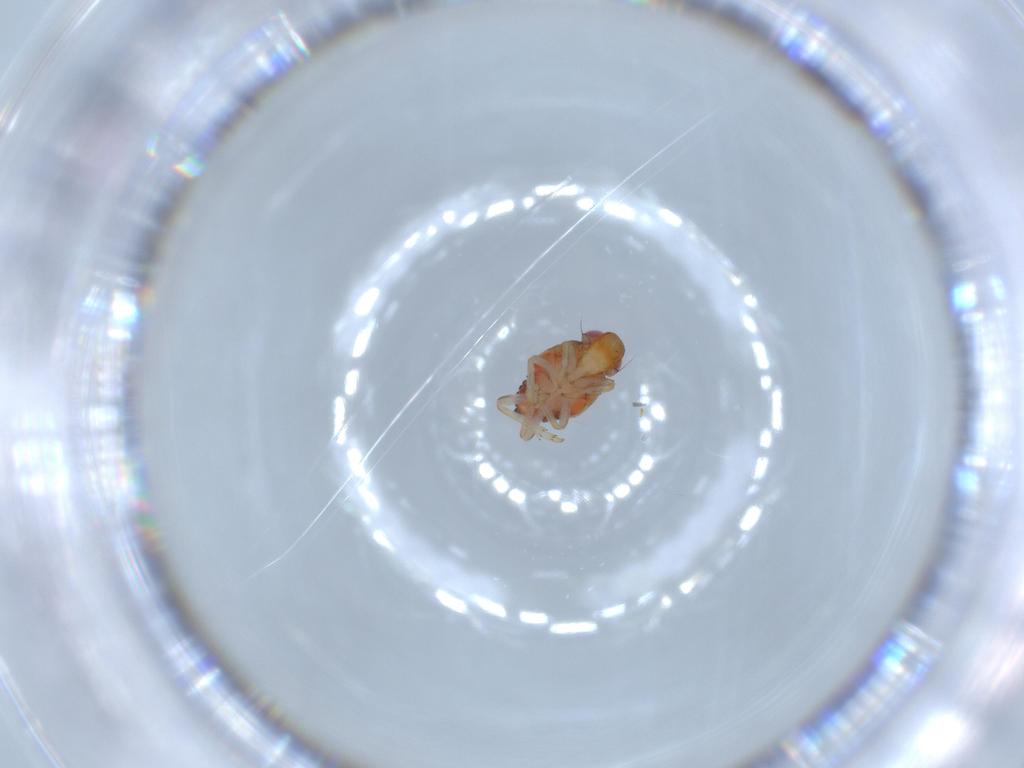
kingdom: Animalia
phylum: Arthropoda
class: Insecta
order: Hemiptera
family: Issidae
